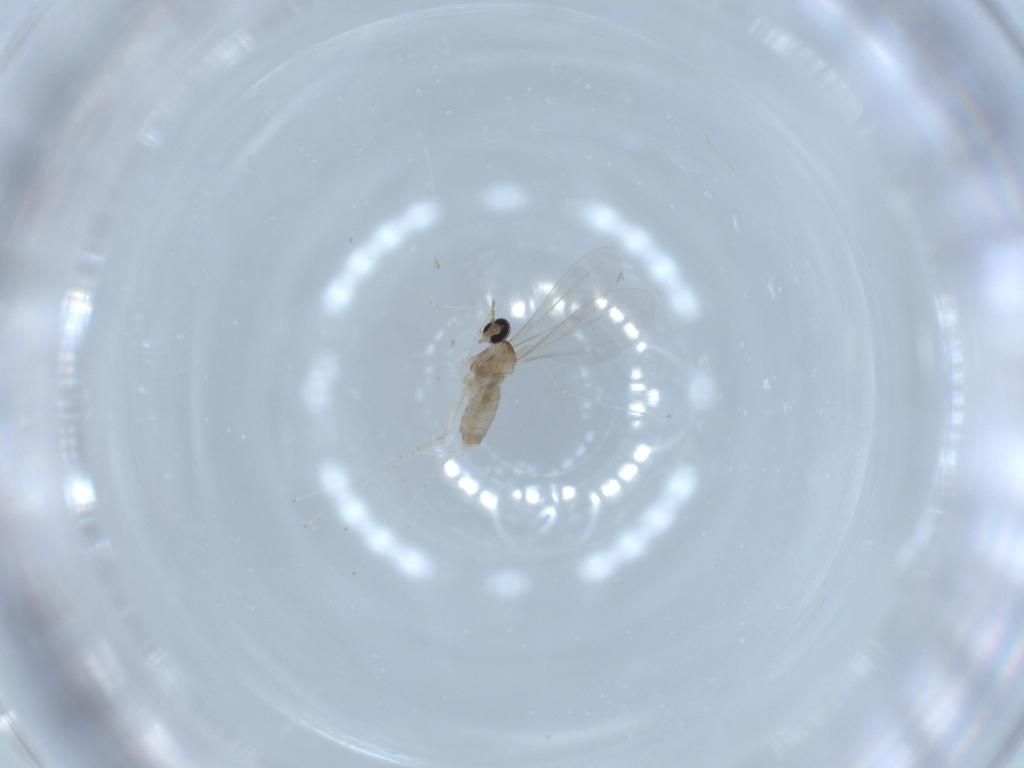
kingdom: Animalia
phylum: Arthropoda
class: Insecta
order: Diptera
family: Cecidomyiidae
